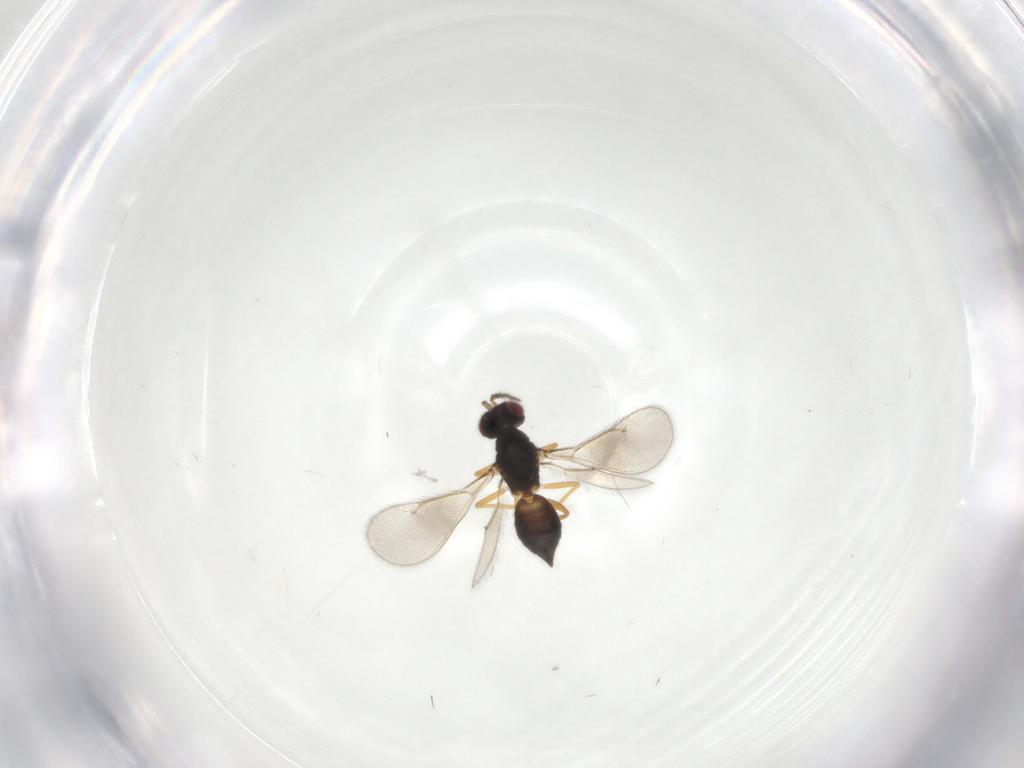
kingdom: Animalia
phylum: Arthropoda
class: Insecta
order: Hymenoptera
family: Eulophidae
